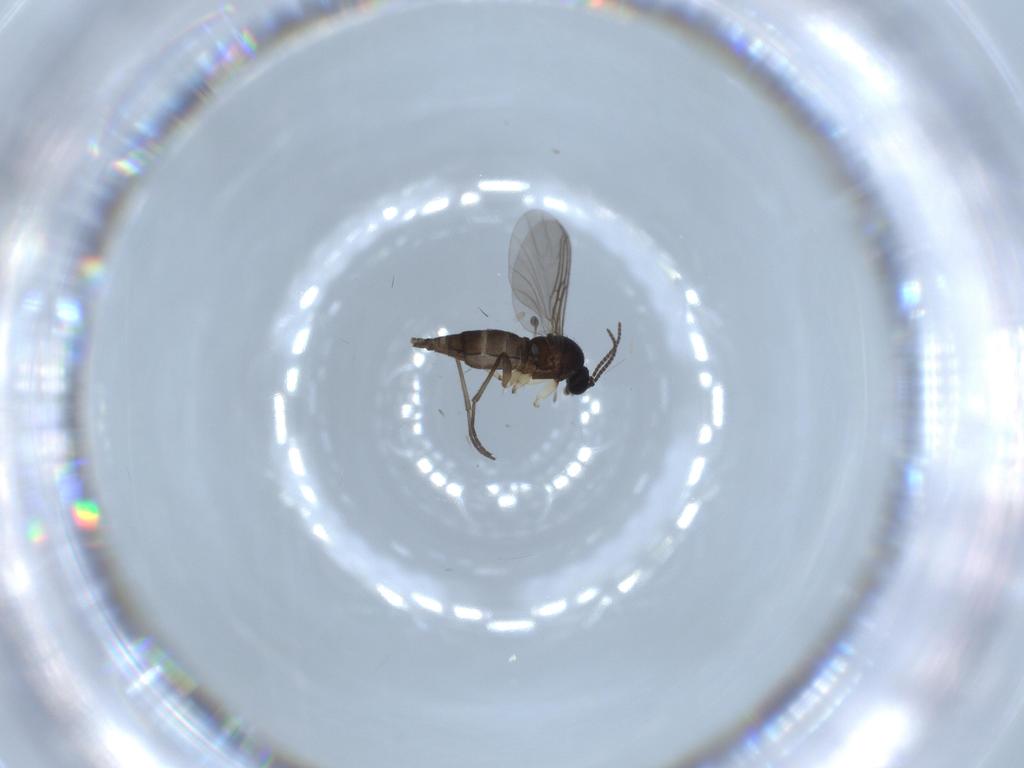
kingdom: Animalia
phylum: Arthropoda
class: Insecta
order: Diptera
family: Sciaridae
